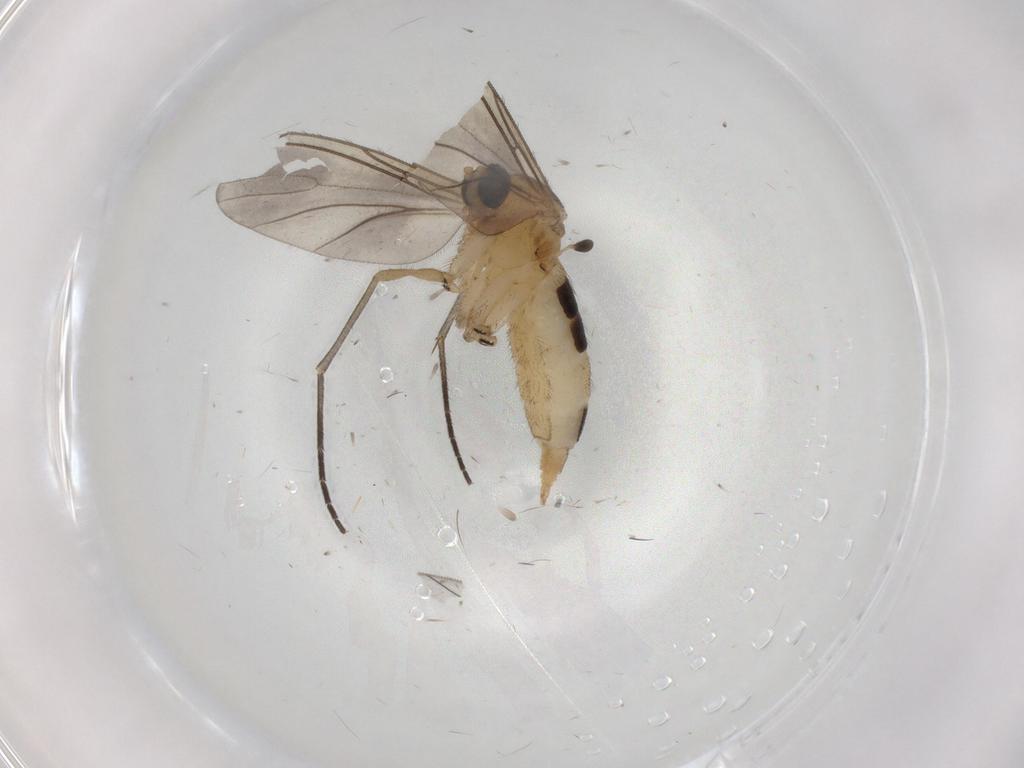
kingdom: Animalia
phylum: Arthropoda
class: Insecta
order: Diptera
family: Sciaridae
